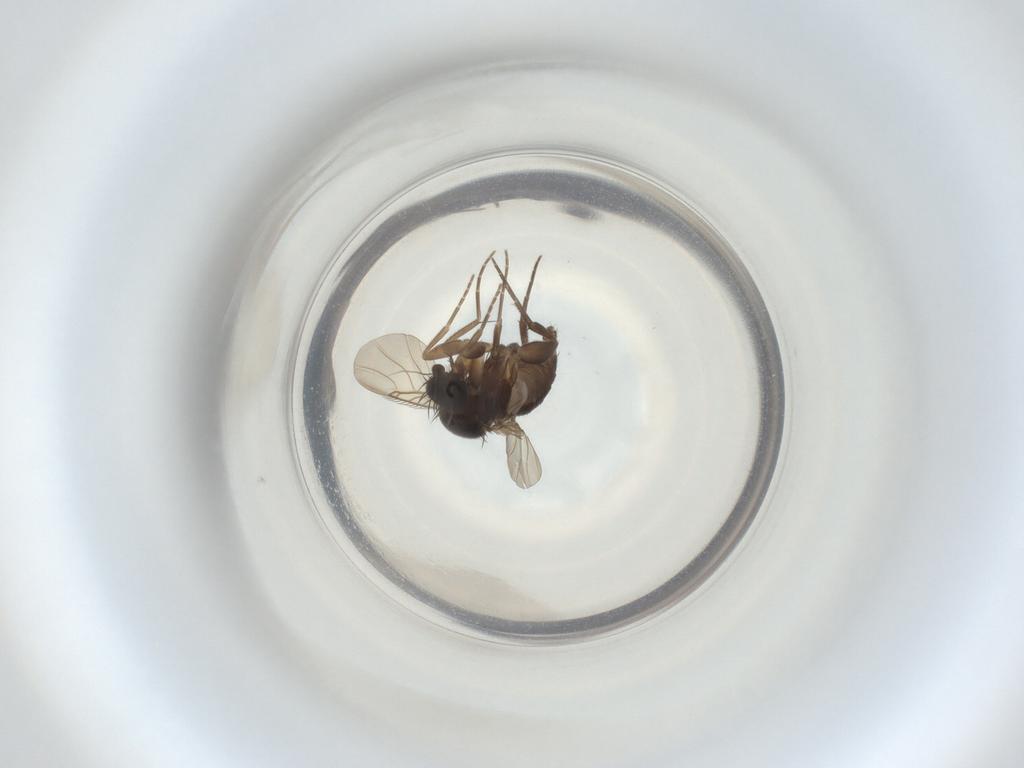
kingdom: Animalia
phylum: Arthropoda
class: Insecta
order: Diptera
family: Phoridae
